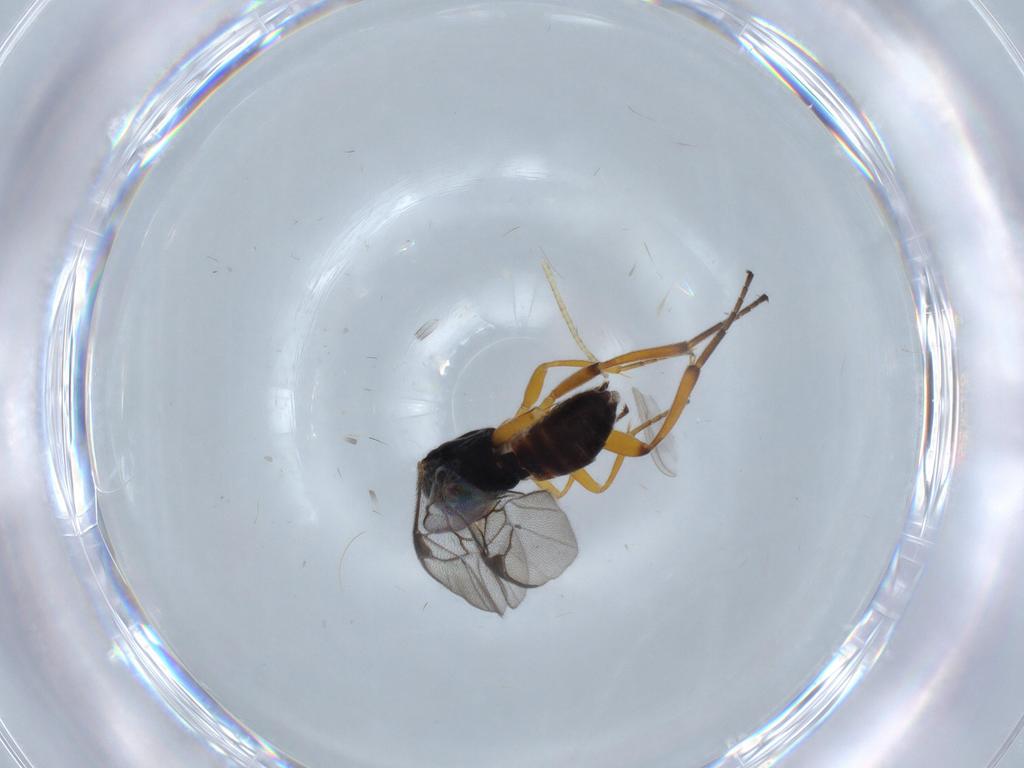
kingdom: Animalia
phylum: Arthropoda
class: Insecta
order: Hymenoptera
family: Braconidae
